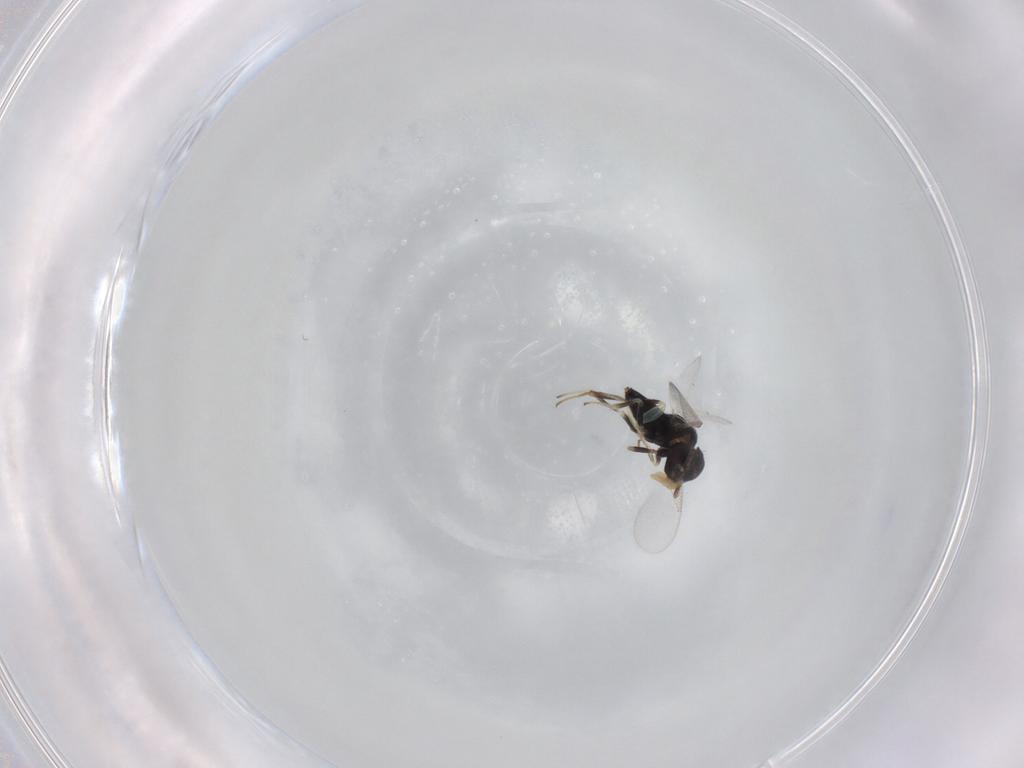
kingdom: Animalia
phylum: Arthropoda
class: Insecta
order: Hymenoptera
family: Aphelinidae
